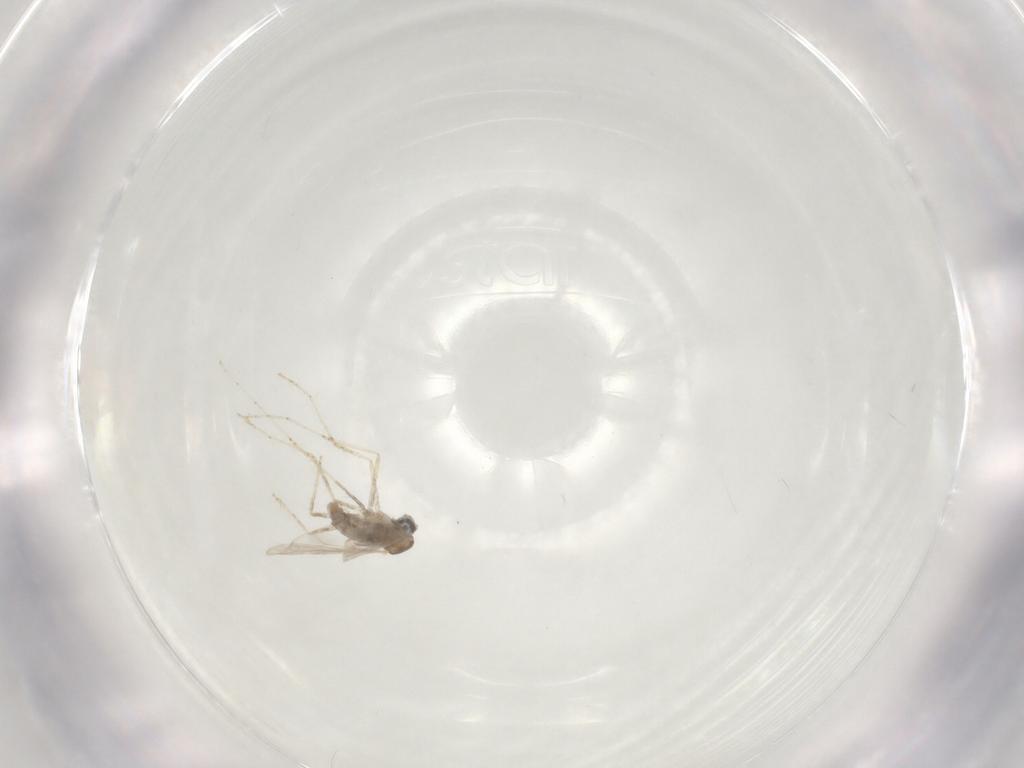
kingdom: Animalia
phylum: Arthropoda
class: Insecta
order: Diptera
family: Cecidomyiidae
